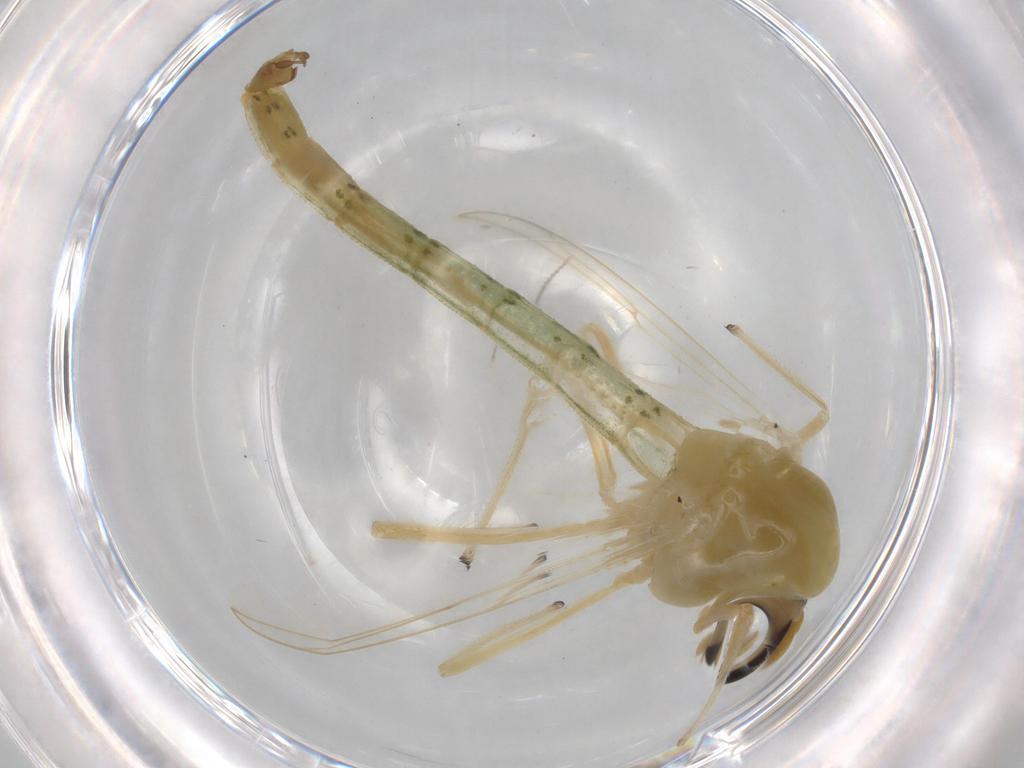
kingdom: Animalia
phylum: Arthropoda
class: Insecta
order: Diptera
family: Chironomidae
